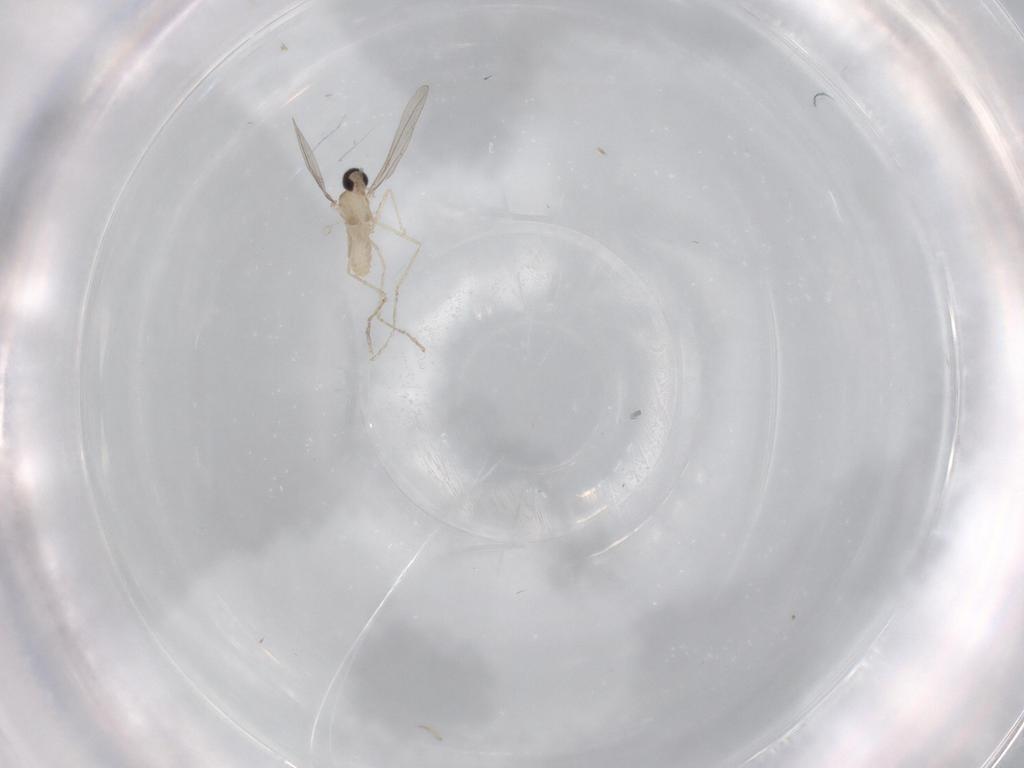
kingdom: Animalia
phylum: Arthropoda
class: Insecta
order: Diptera
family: Cecidomyiidae
